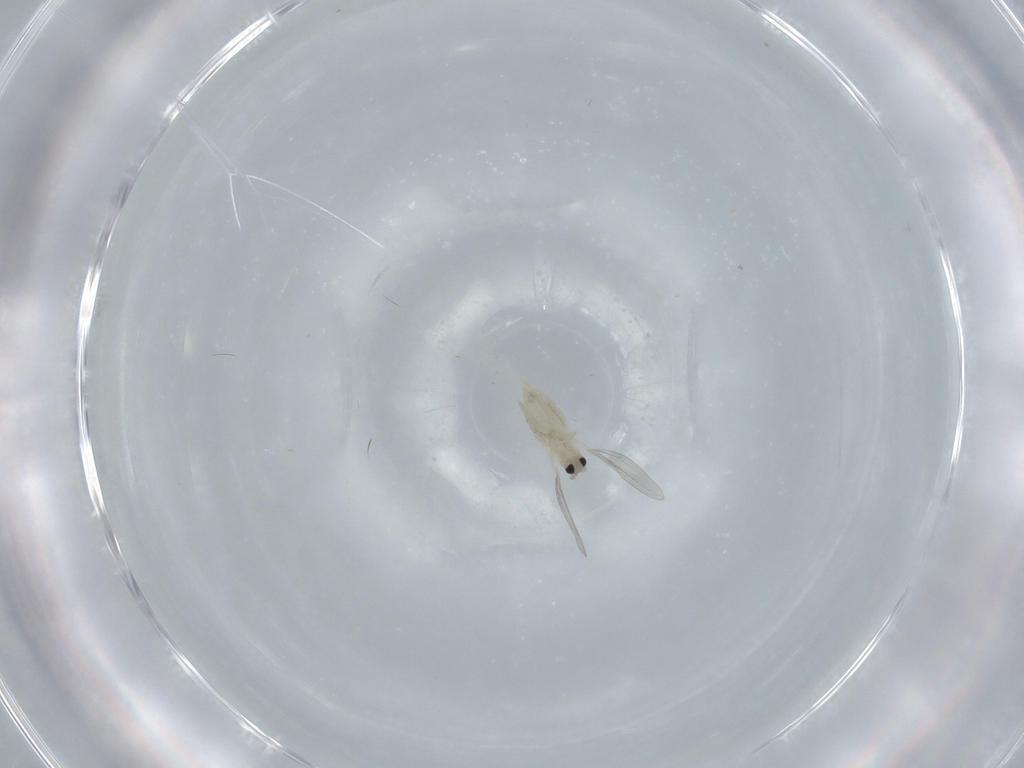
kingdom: Animalia
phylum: Arthropoda
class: Insecta
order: Diptera
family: Cecidomyiidae
